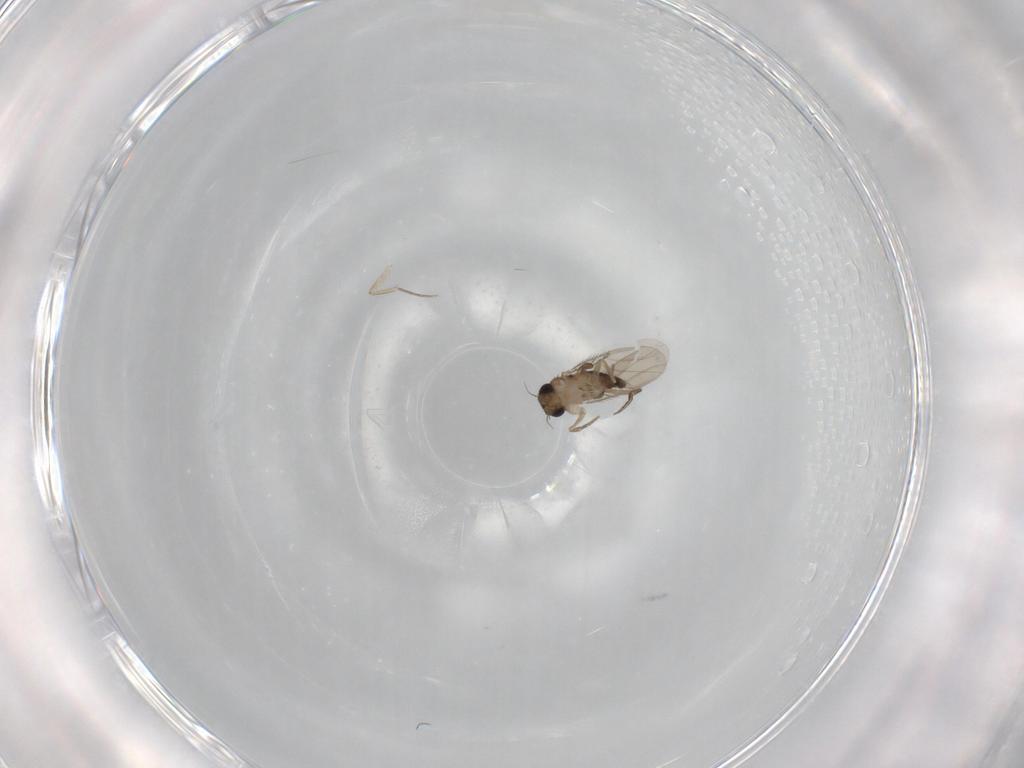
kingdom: Animalia
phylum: Arthropoda
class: Insecta
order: Diptera
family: Phoridae
